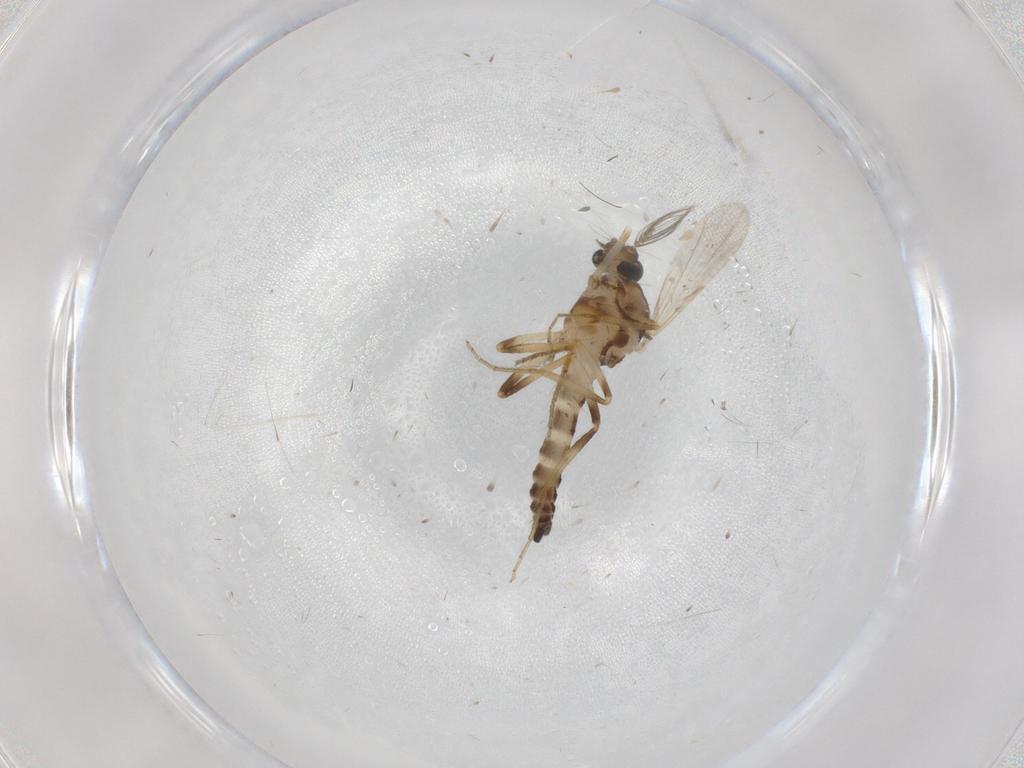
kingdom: Animalia
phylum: Arthropoda
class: Insecta
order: Diptera
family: Ceratopogonidae
